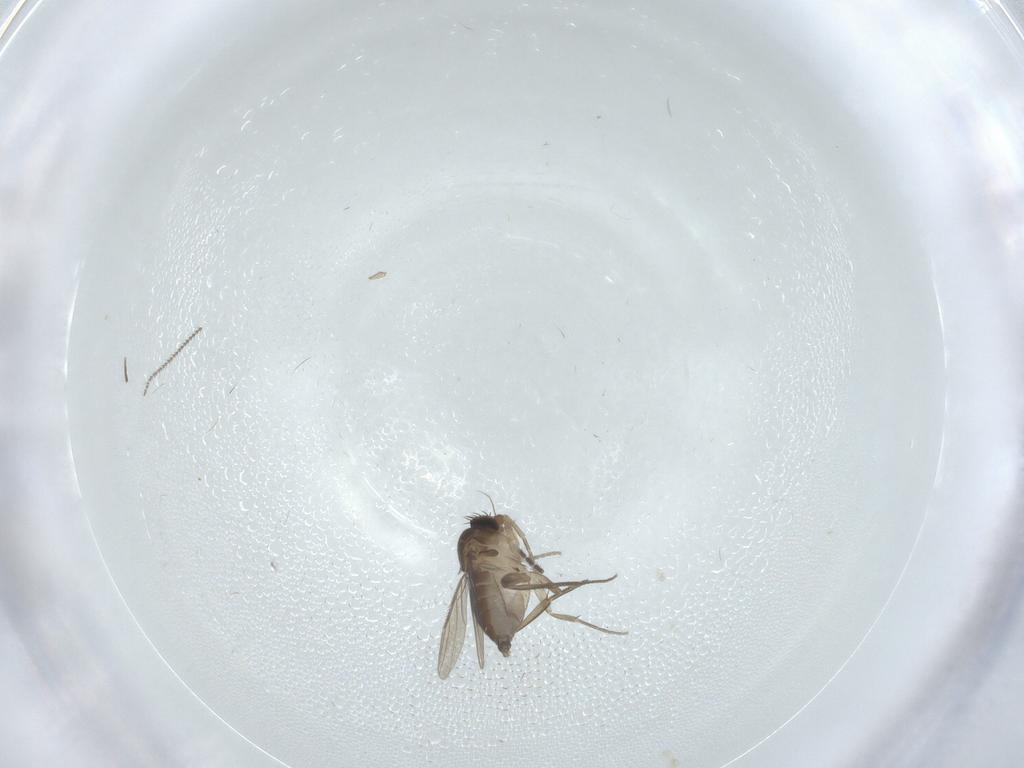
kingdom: Animalia
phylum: Arthropoda
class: Insecta
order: Diptera
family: Phoridae
